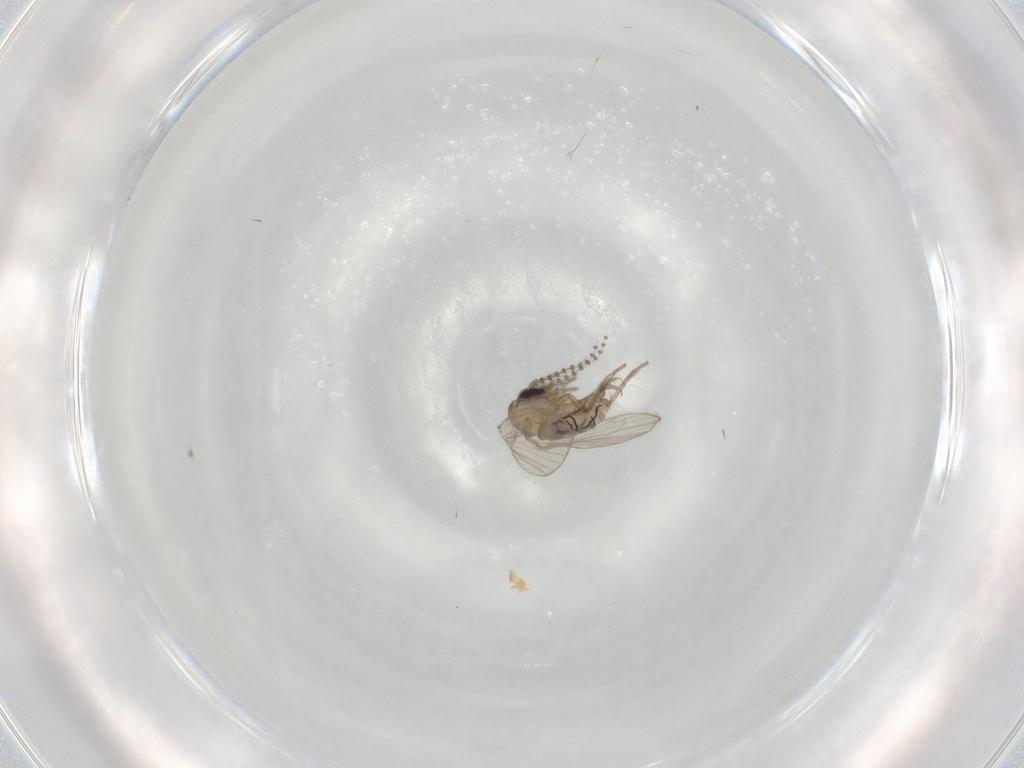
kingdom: Animalia
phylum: Arthropoda
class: Insecta
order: Diptera
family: Psychodidae
